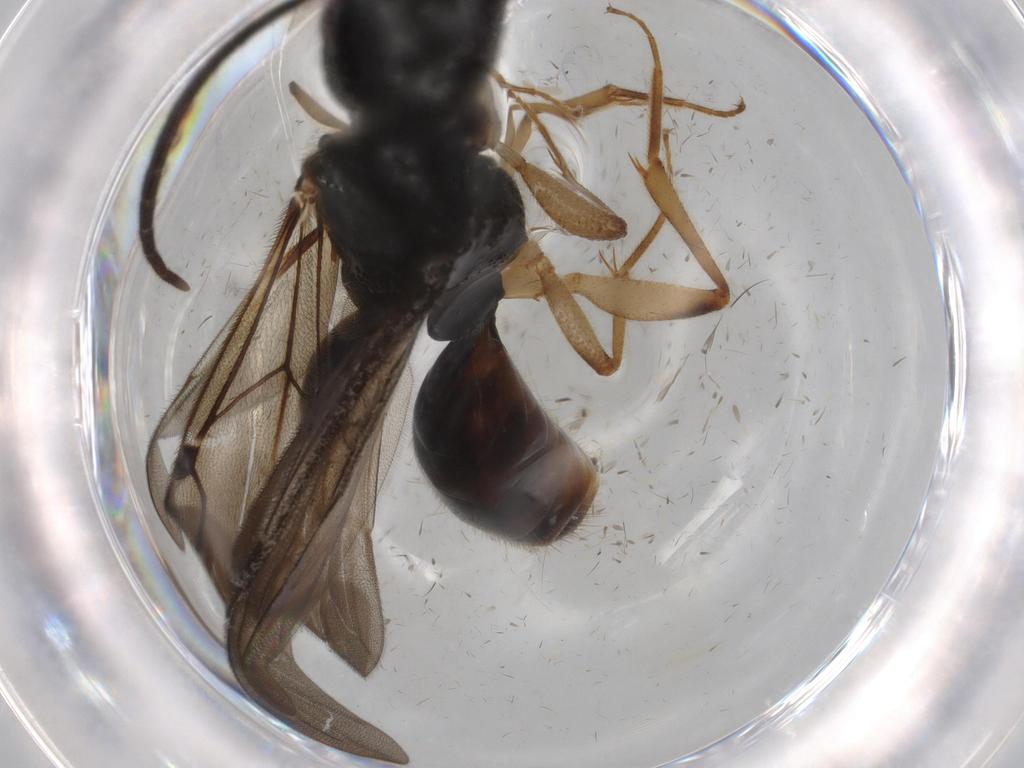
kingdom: Animalia
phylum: Arthropoda
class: Insecta
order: Hymenoptera
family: Bethylidae
